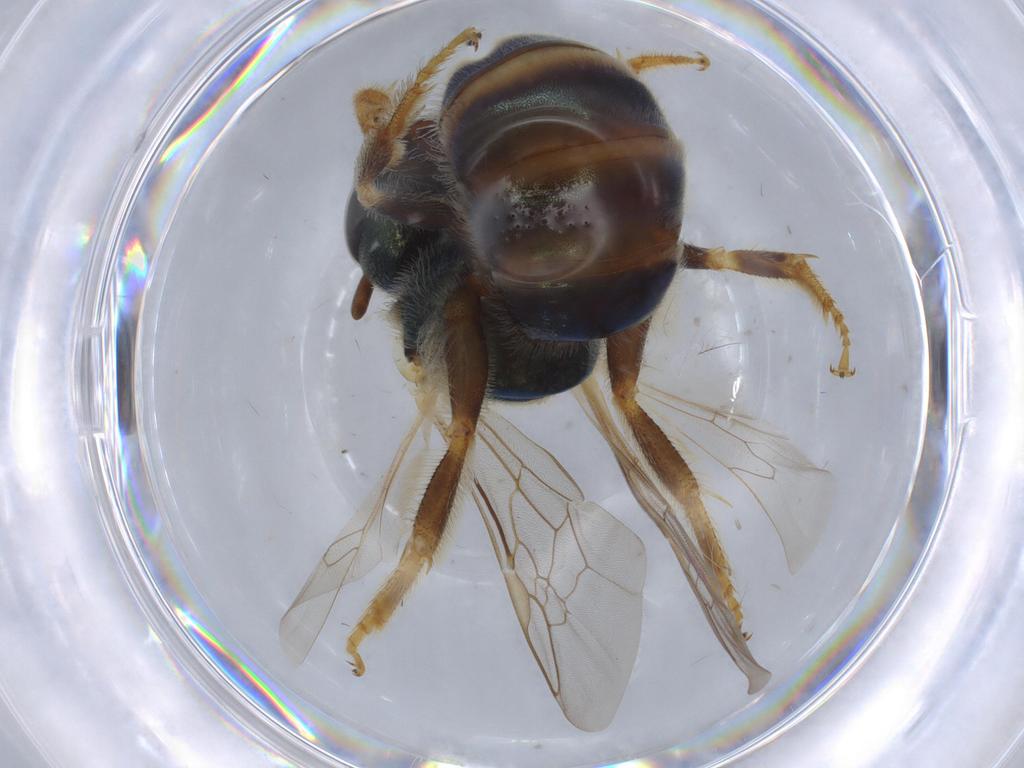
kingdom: Animalia
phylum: Arthropoda
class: Insecta
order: Hymenoptera
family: Halictidae
